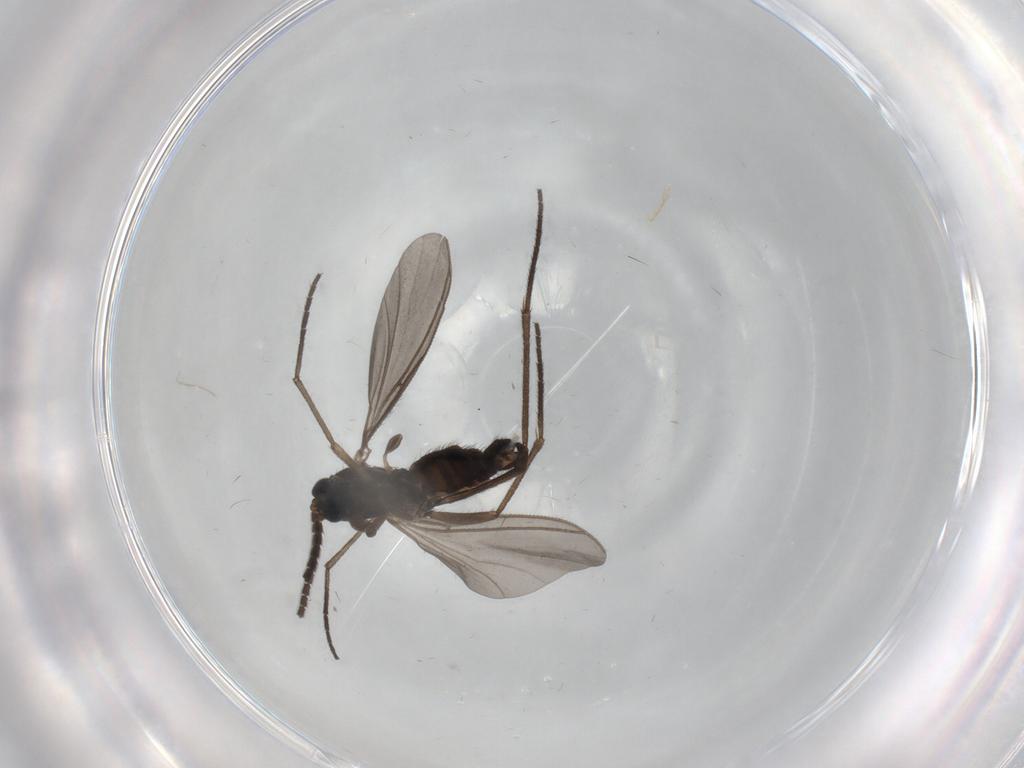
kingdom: Animalia
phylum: Arthropoda
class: Insecta
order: Diptera
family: Sciaridae
